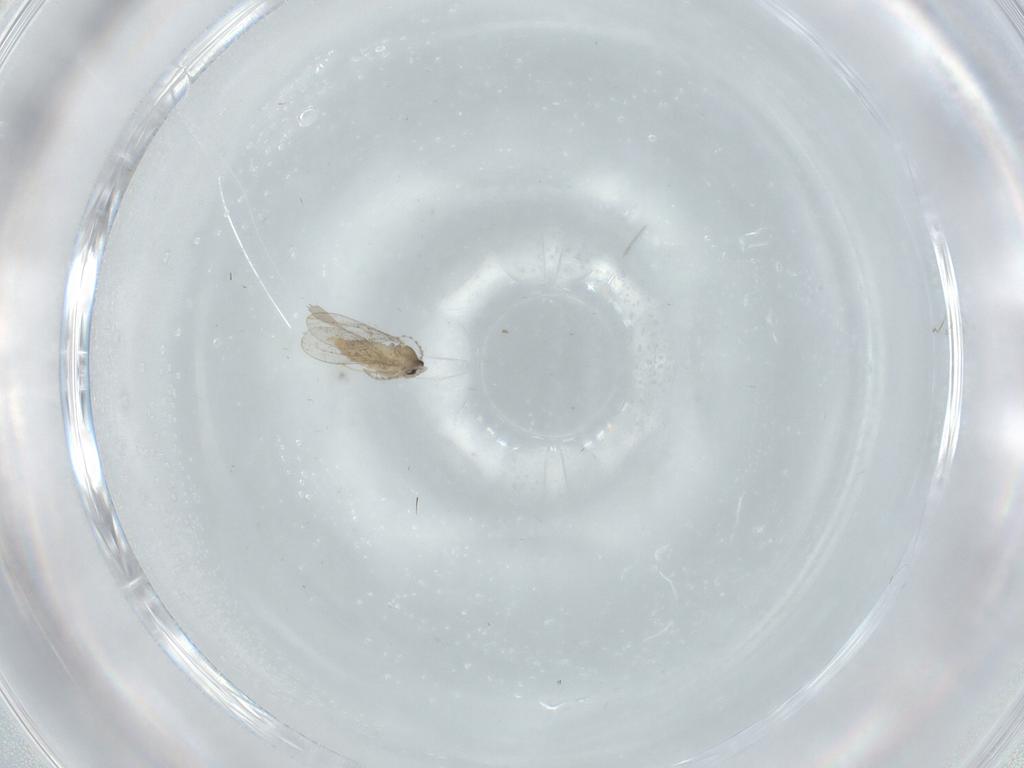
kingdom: Animalia
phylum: Arthropoda
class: Insecta
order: Diptera
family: Cecidomyiidae
